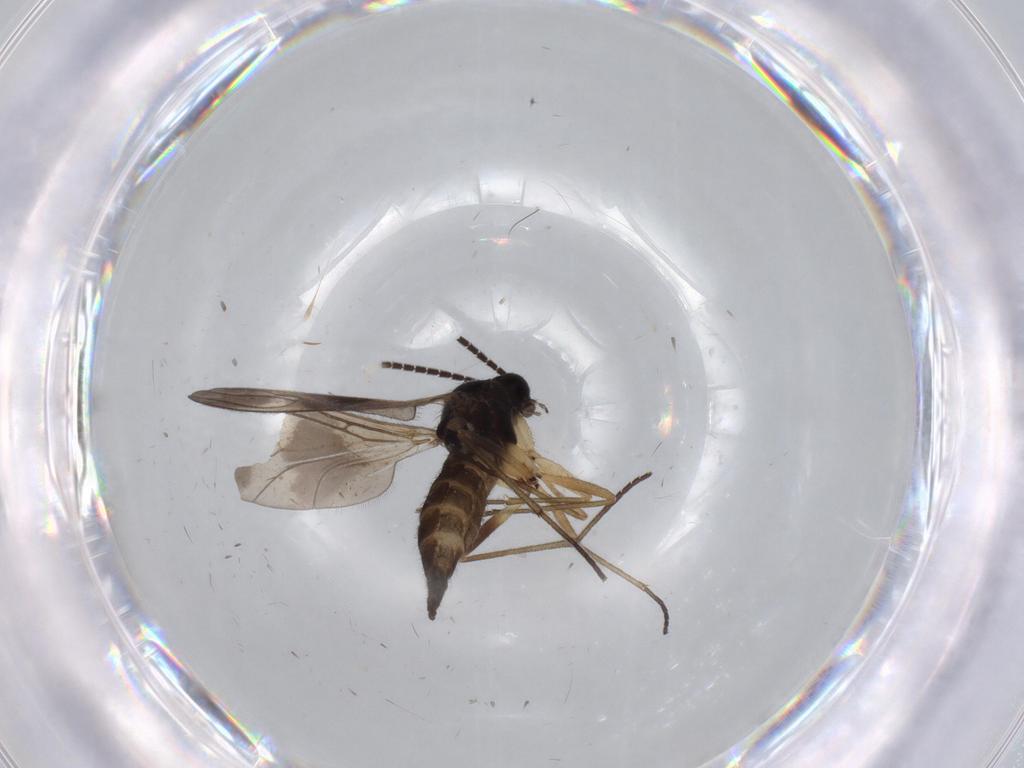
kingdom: Animalia
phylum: Arthropoda
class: Insecta
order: Diptera
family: Sciaridae
